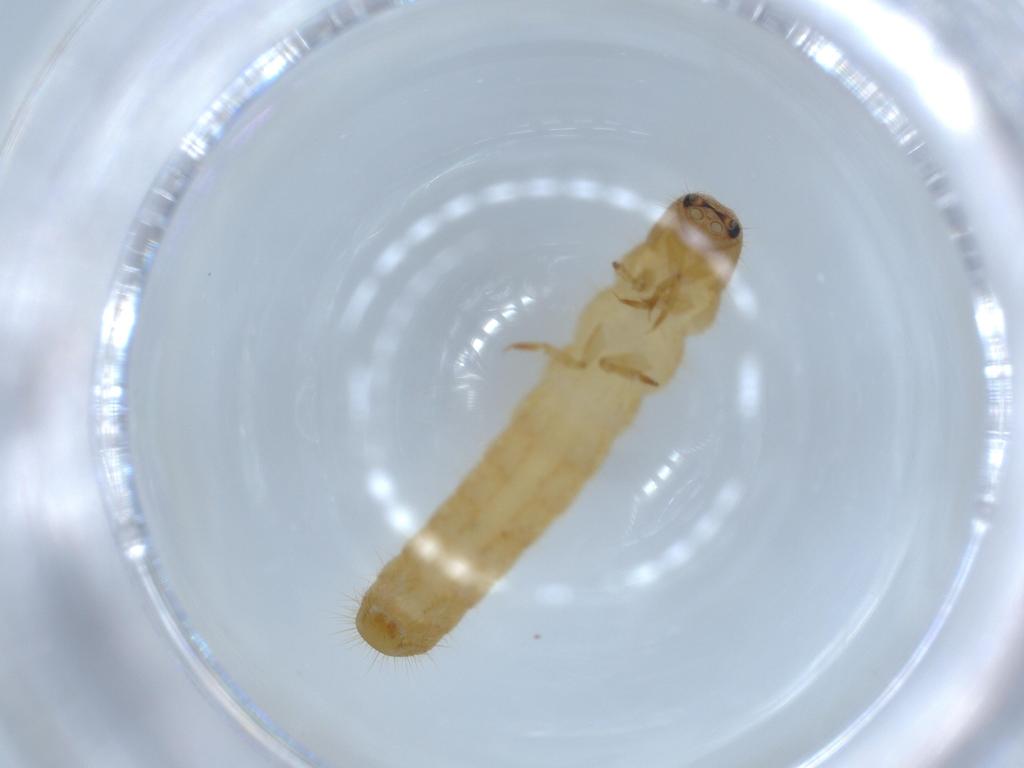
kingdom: Animalia
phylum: Arthropoda
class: Insecta
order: Coleoptera
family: Phengodidae
